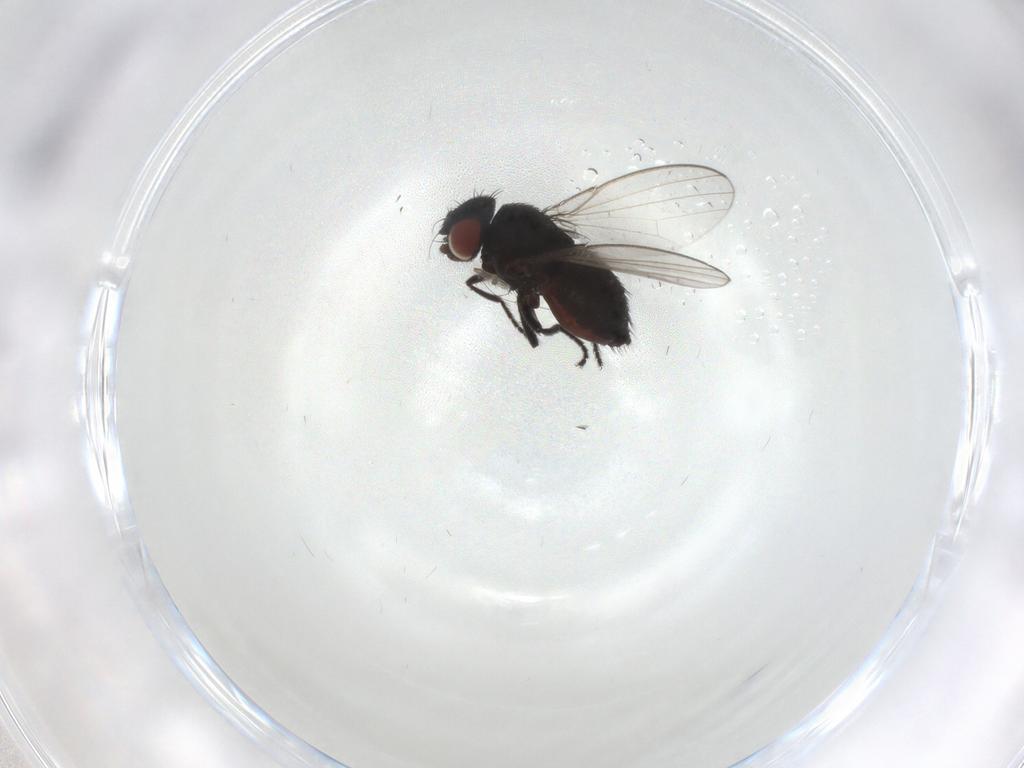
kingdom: Animalia
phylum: Arthropoda
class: Insecta
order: Diptera
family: Milichiidae
